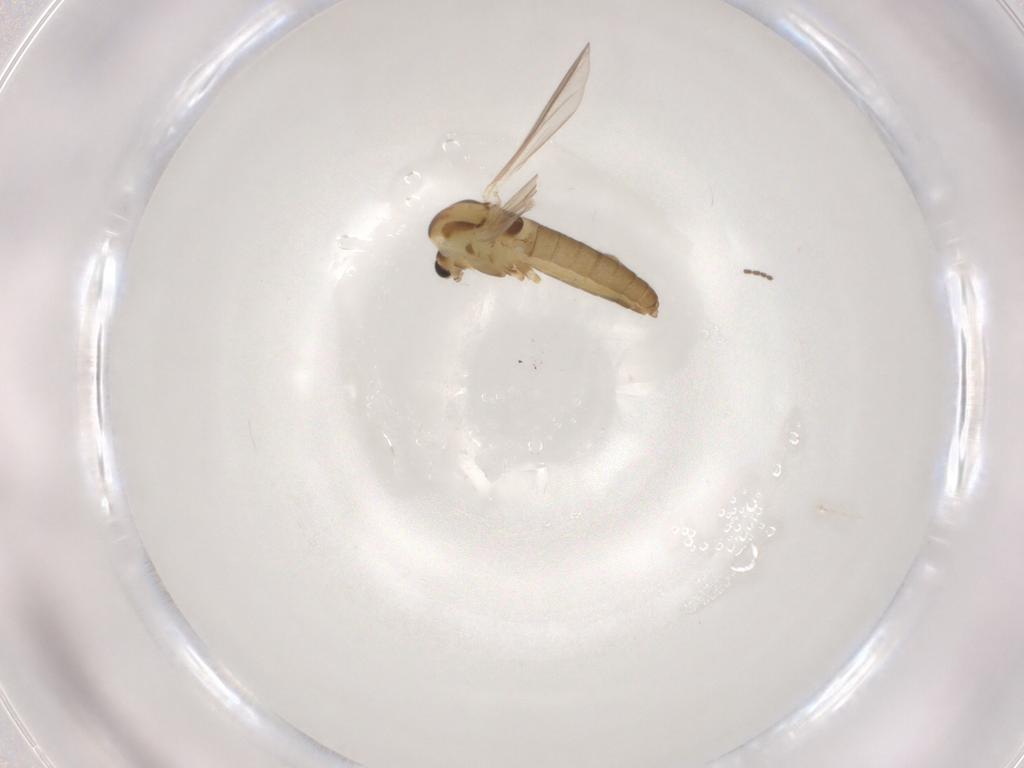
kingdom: Animalia
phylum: Arthropoda
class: Insecta
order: Diptera
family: Chironomidae
